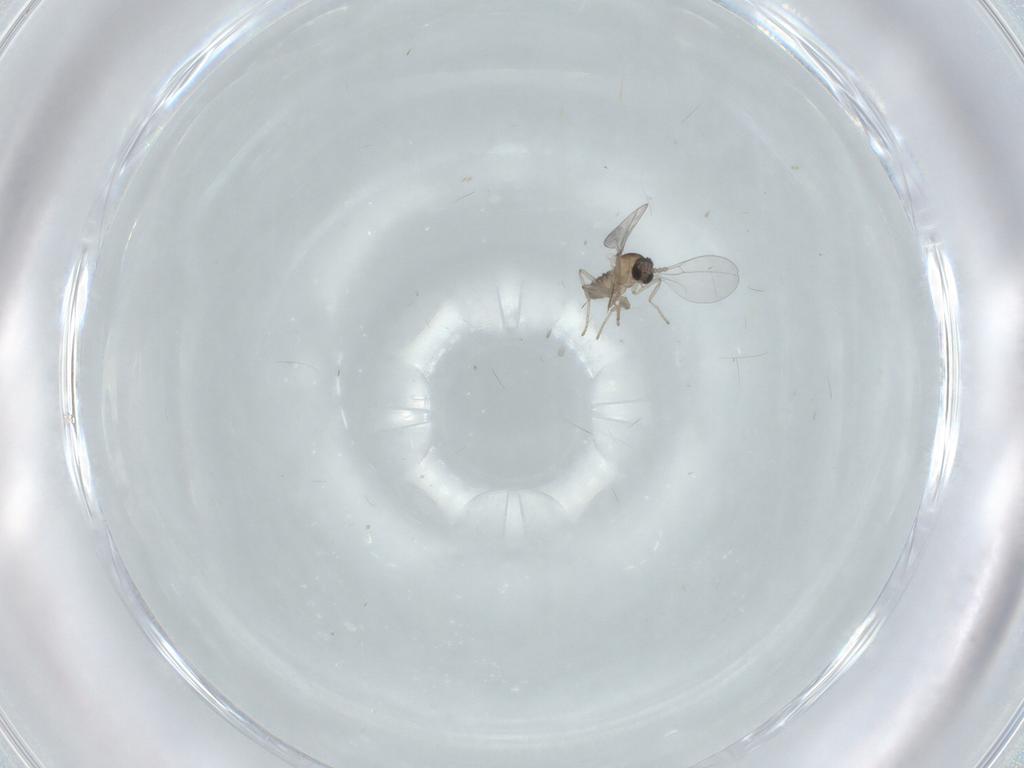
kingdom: Animalia
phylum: Arthropoda
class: Insecta
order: Diptera
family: Cecidomyiidae
